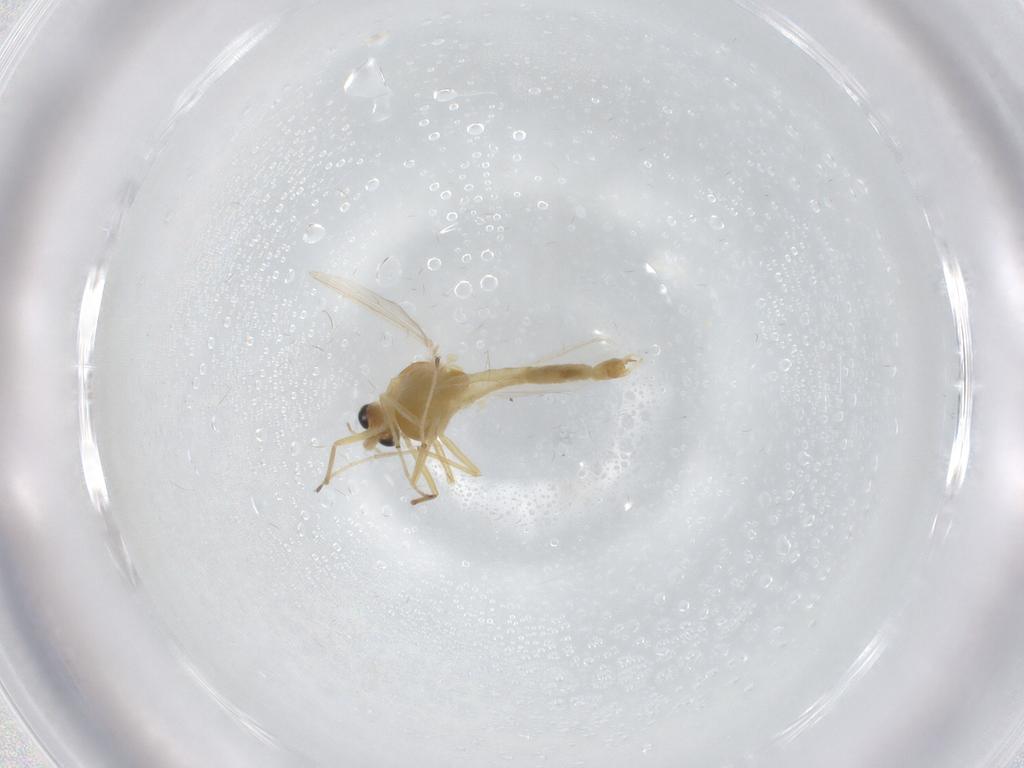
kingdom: Animalia
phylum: Arthropoda
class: Insecta
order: Diptera
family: Chironomidae
